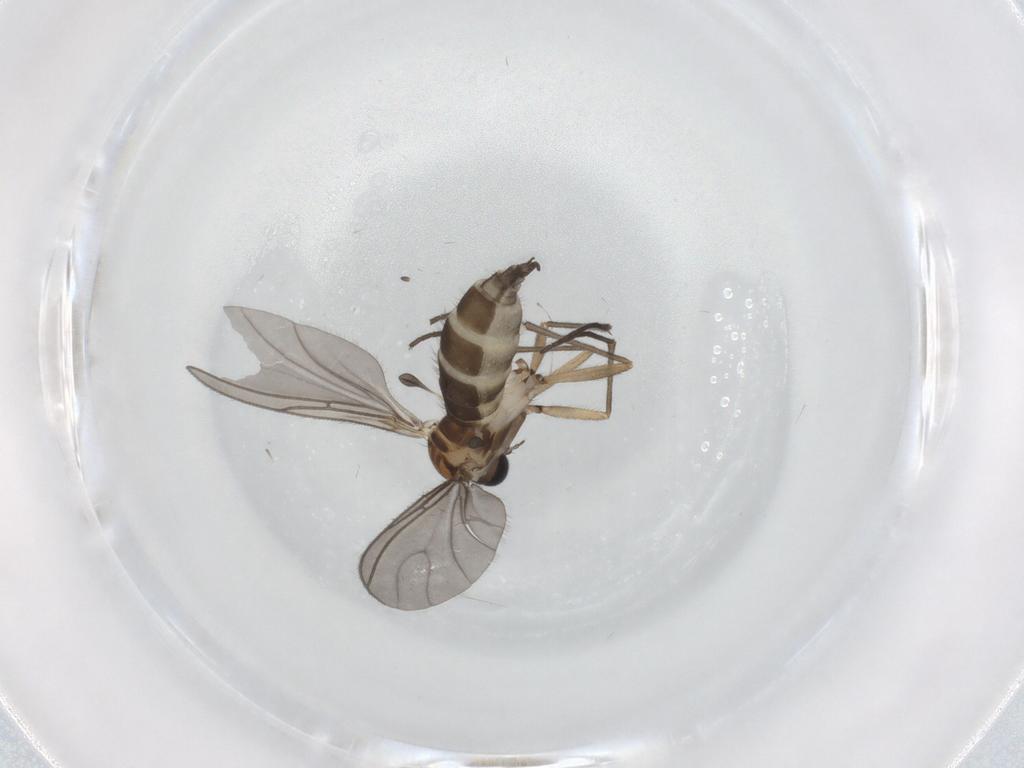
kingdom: Animalia
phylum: Arthropoda
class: Insecta
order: Diptera
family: Sciaridae
